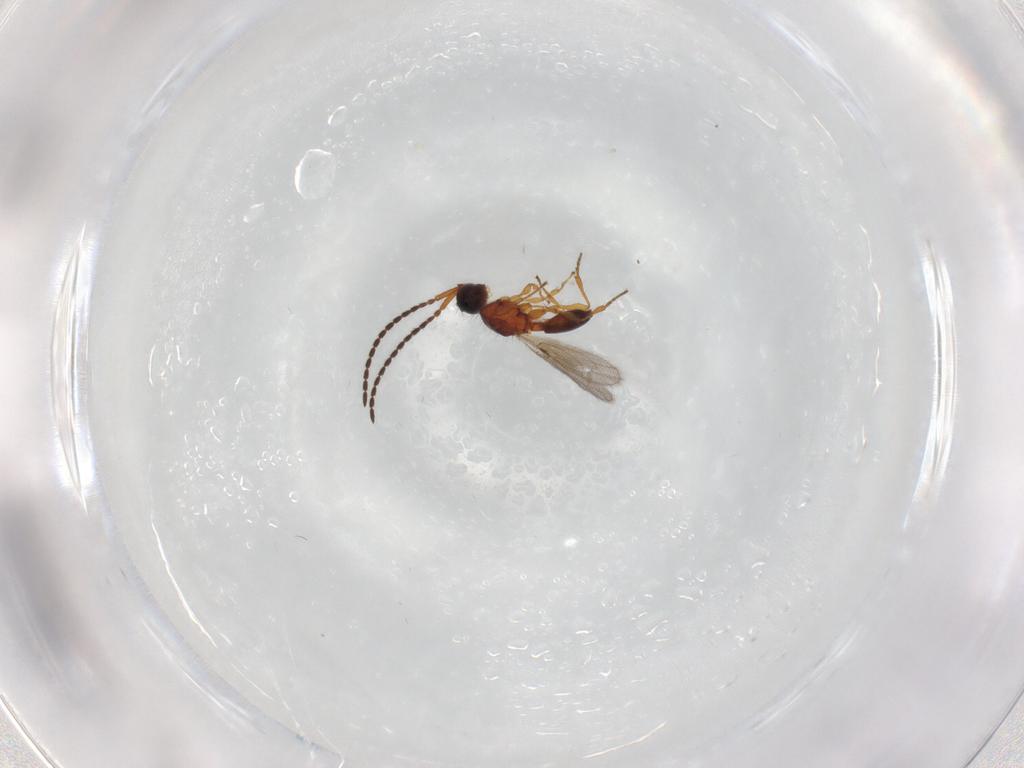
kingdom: Animalia
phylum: Arthropoda
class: Insecta
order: Hymenoptera
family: Diapriidae
